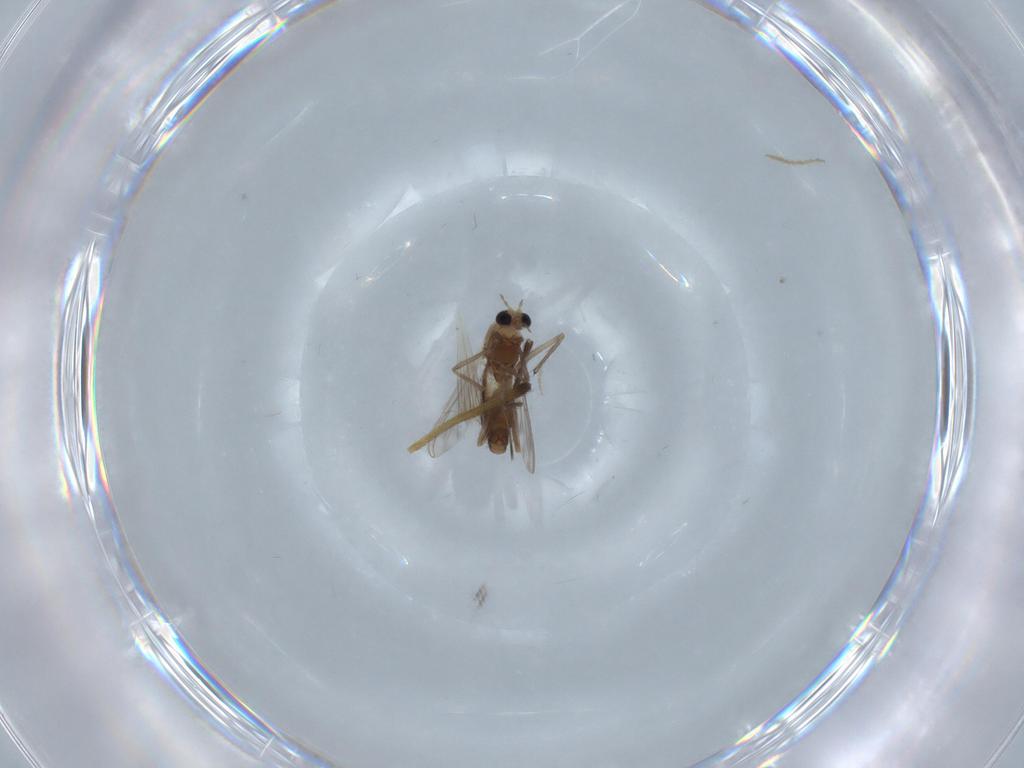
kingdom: Animalia
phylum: Arthropoda
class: Insecta
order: Diptera
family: Chironomidae
